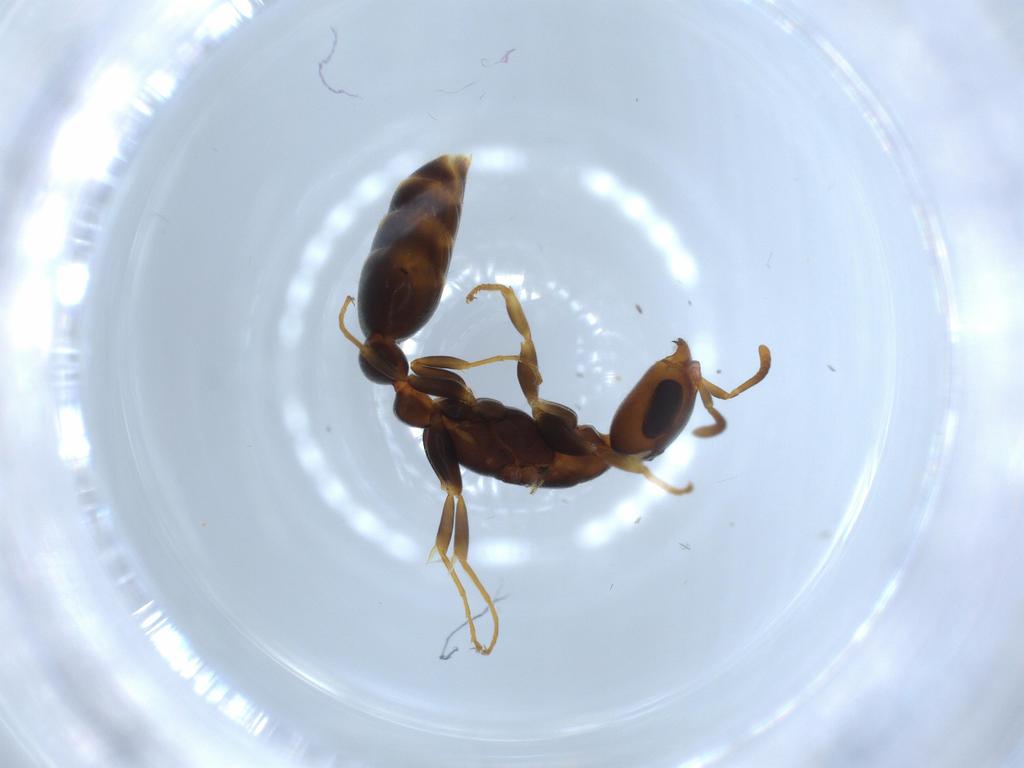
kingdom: Animalia
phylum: Arthropoda
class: Insecta
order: Hymenoptera
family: Formicidae
